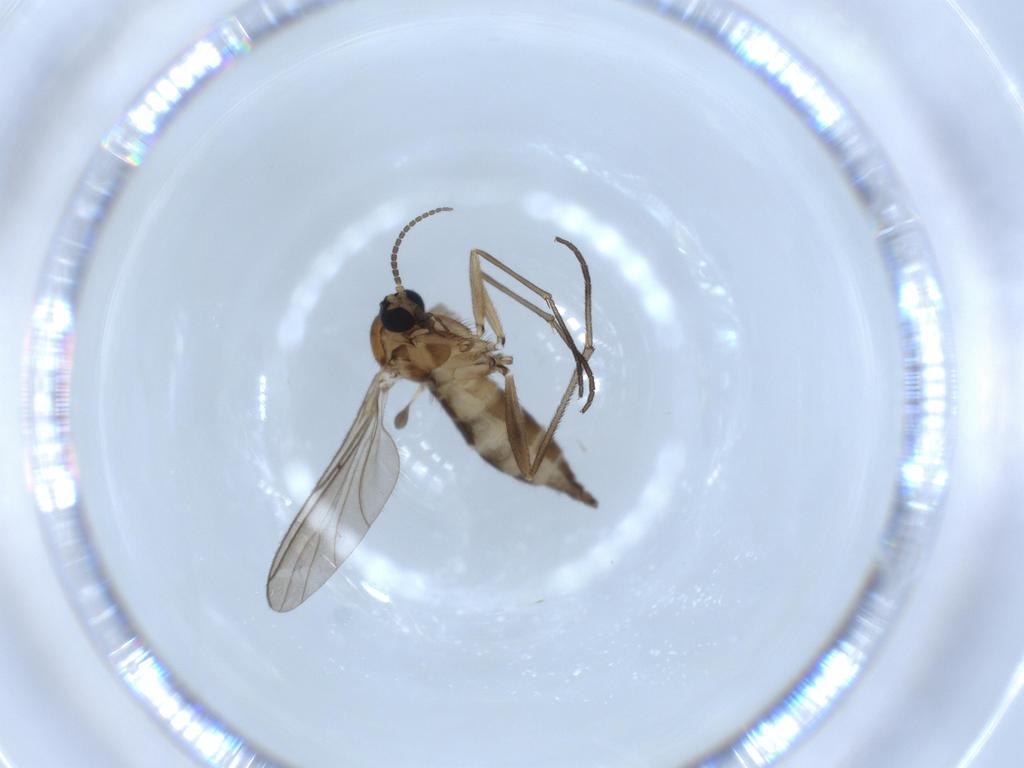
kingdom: Animalia
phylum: Arthropoda
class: Insecta
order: Diptera
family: Sciaridae
